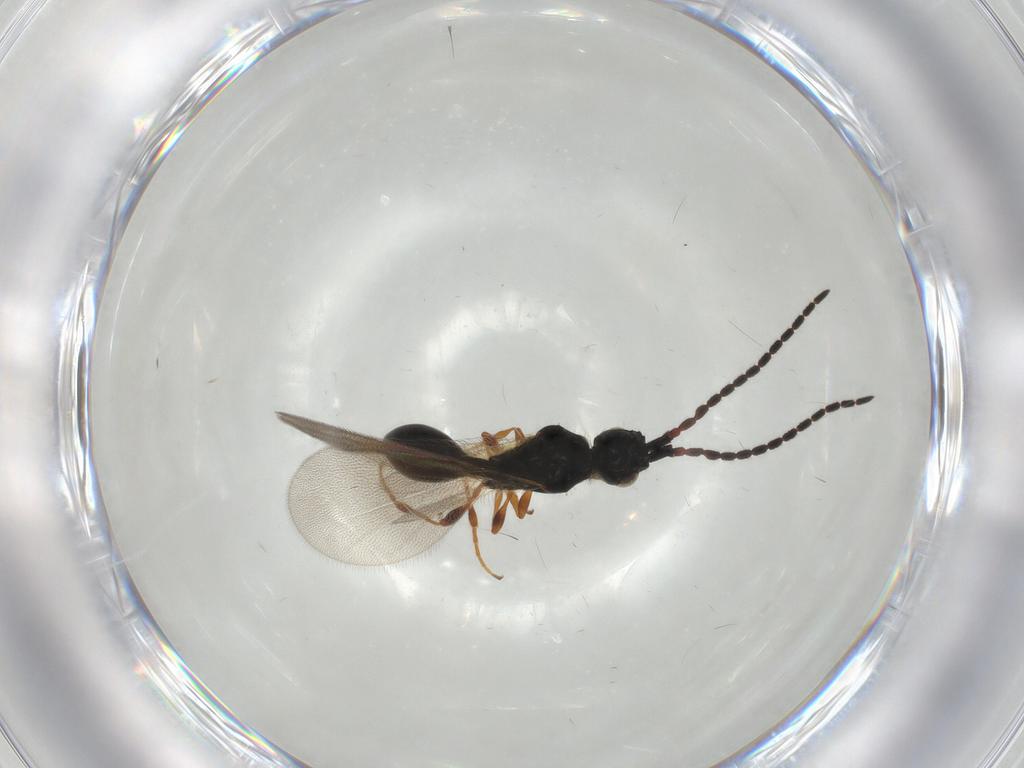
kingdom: Animalia
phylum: Arthropoda
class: Insecta
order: Hymenoptera
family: Diapriidae
